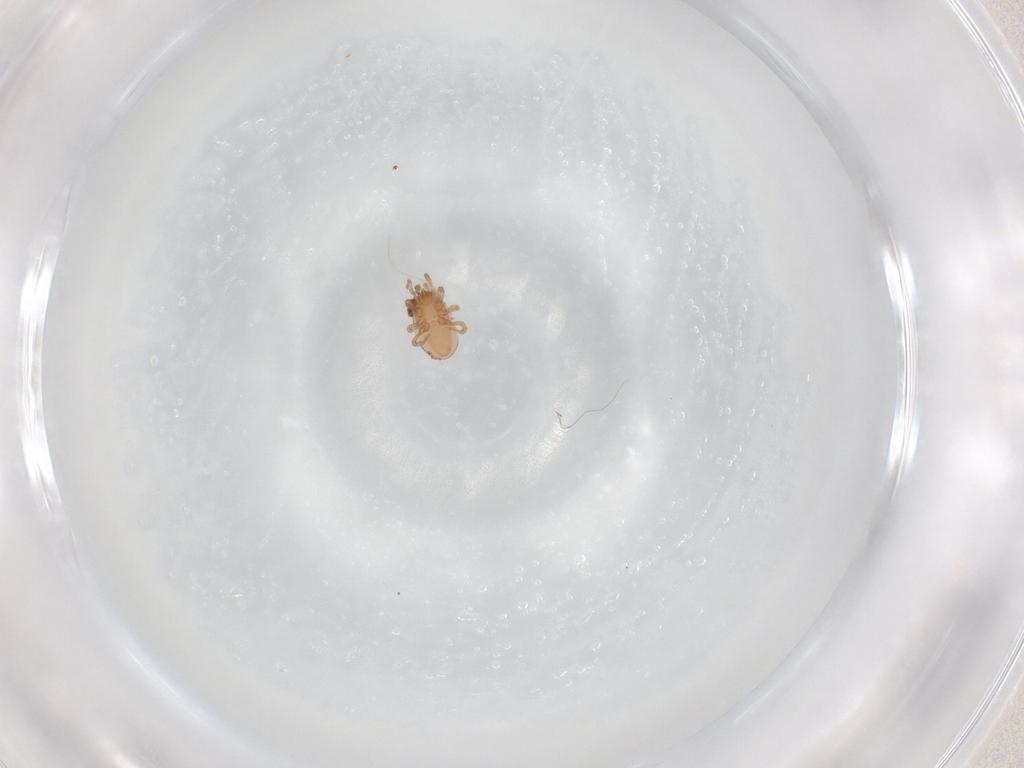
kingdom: Animalia
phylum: Arthropoda
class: Arachnida
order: Mesostigmata
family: Ologamasidae
